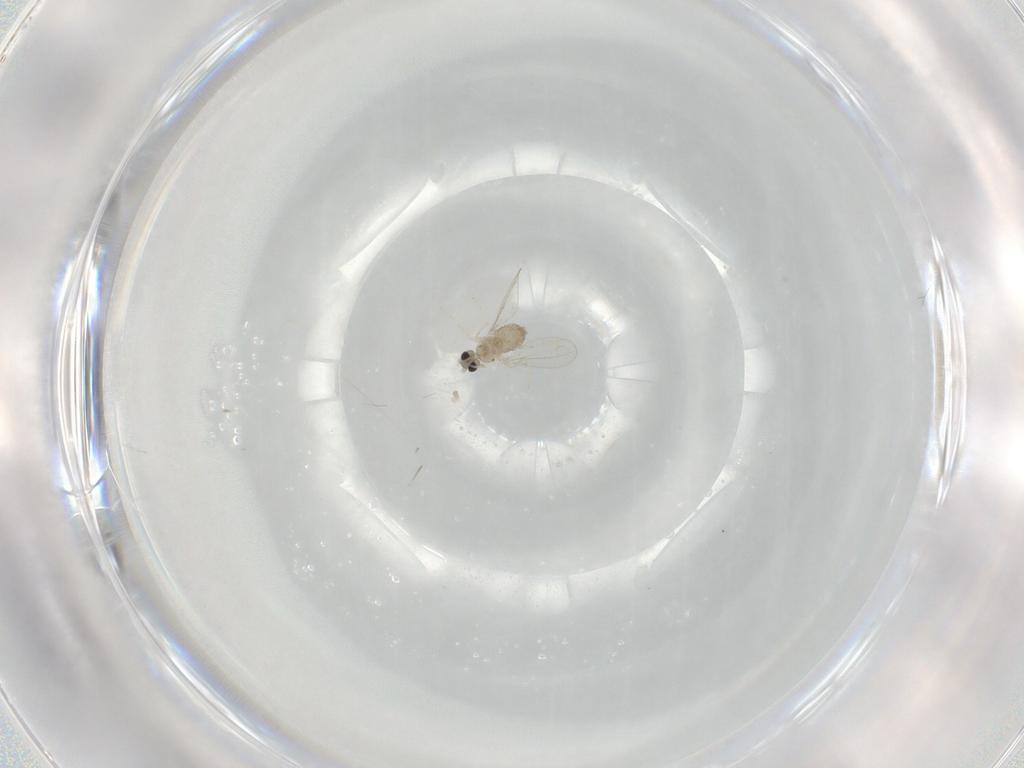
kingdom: Animalia
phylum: Arthropoda
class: Insecta
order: Diptera
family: Cecidomyiidae
